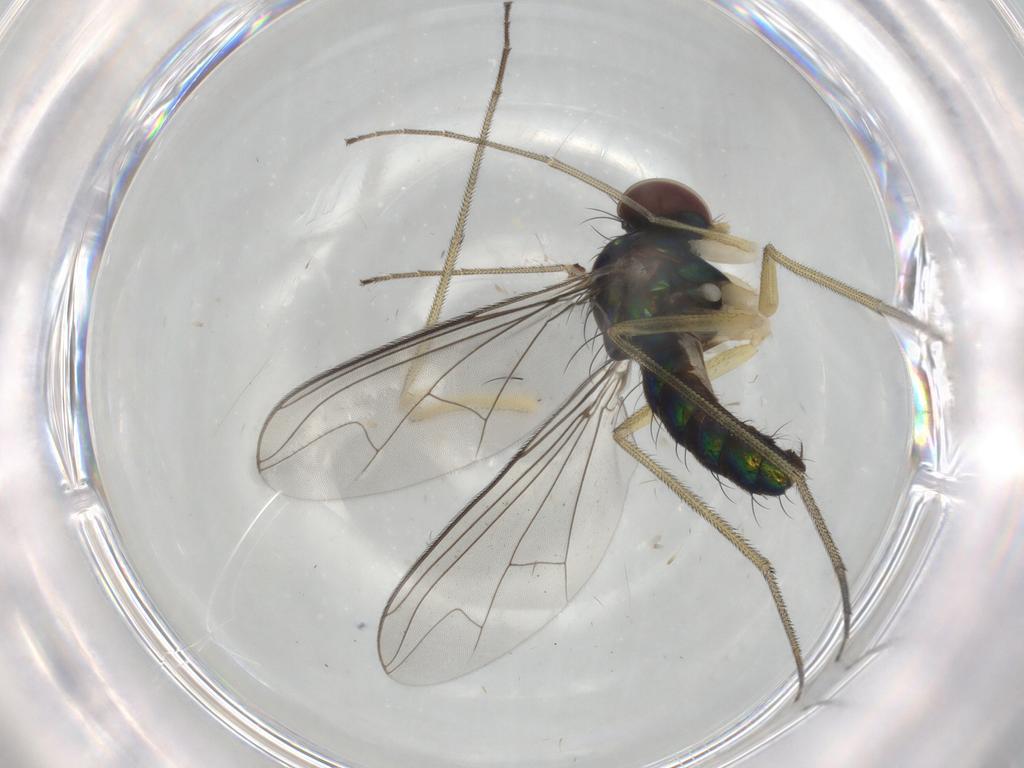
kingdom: Animalia
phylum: Arthropoda
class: Insecta
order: Diptera
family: Dolichopodidae
